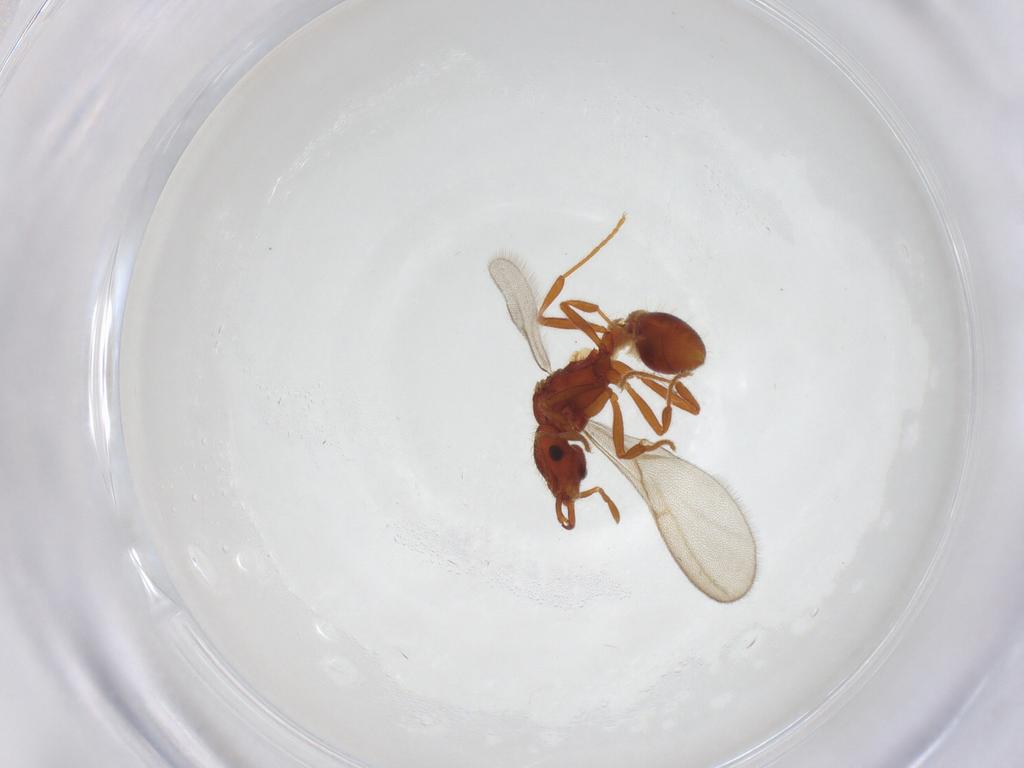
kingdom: Animalia
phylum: Arthropoda
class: Insecta
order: Hymenoptera
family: Formicidae
